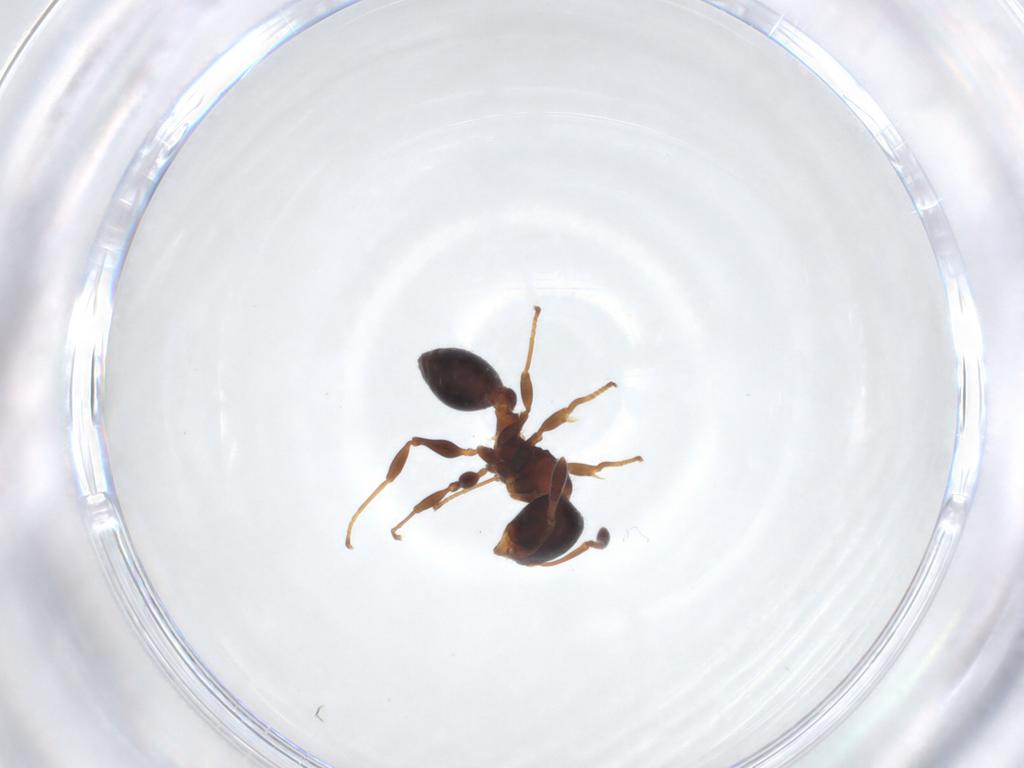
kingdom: Animalia
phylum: Arthropoda
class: Insecta
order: Hymenoptera
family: Formicidae
